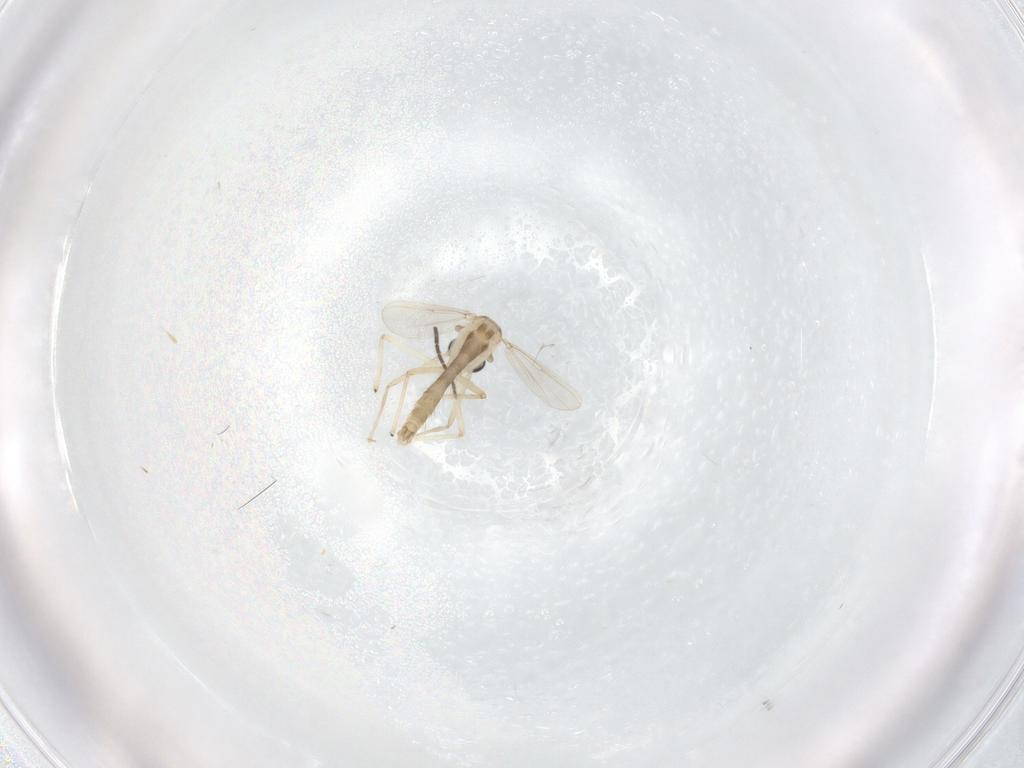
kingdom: Animalia
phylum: Arthropoda
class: Insecta
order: Diptera
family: Chironomidae
